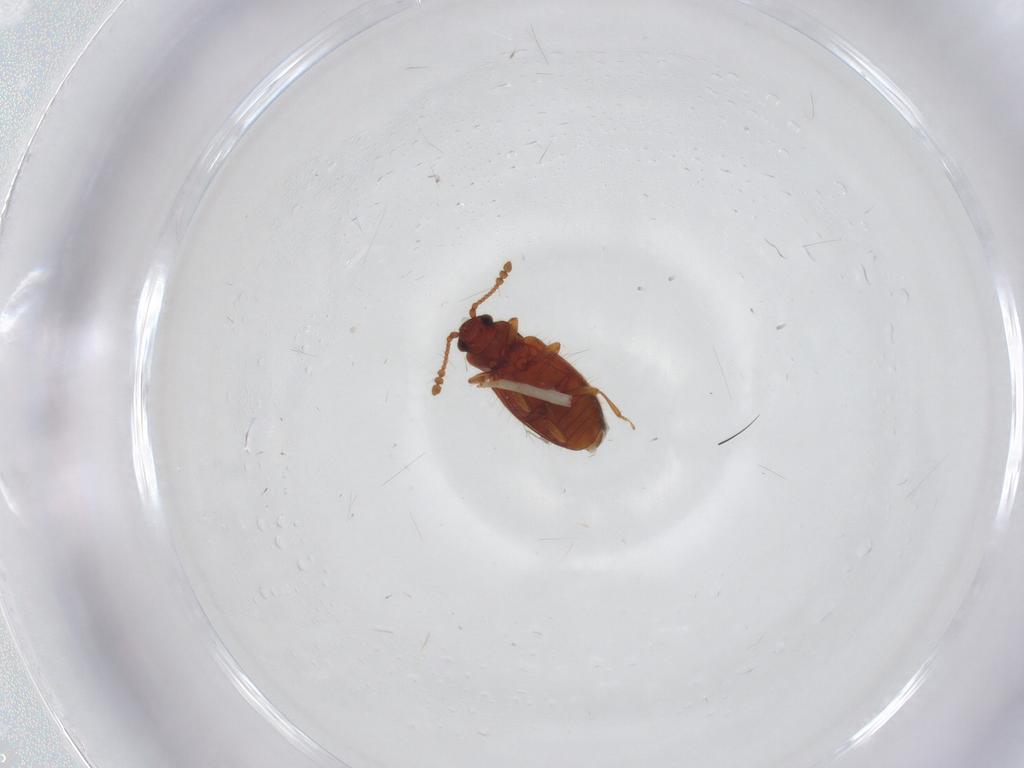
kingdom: Animalia
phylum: Arthropoda
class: Insecta
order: Coleoptera
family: Cryptophagidae
